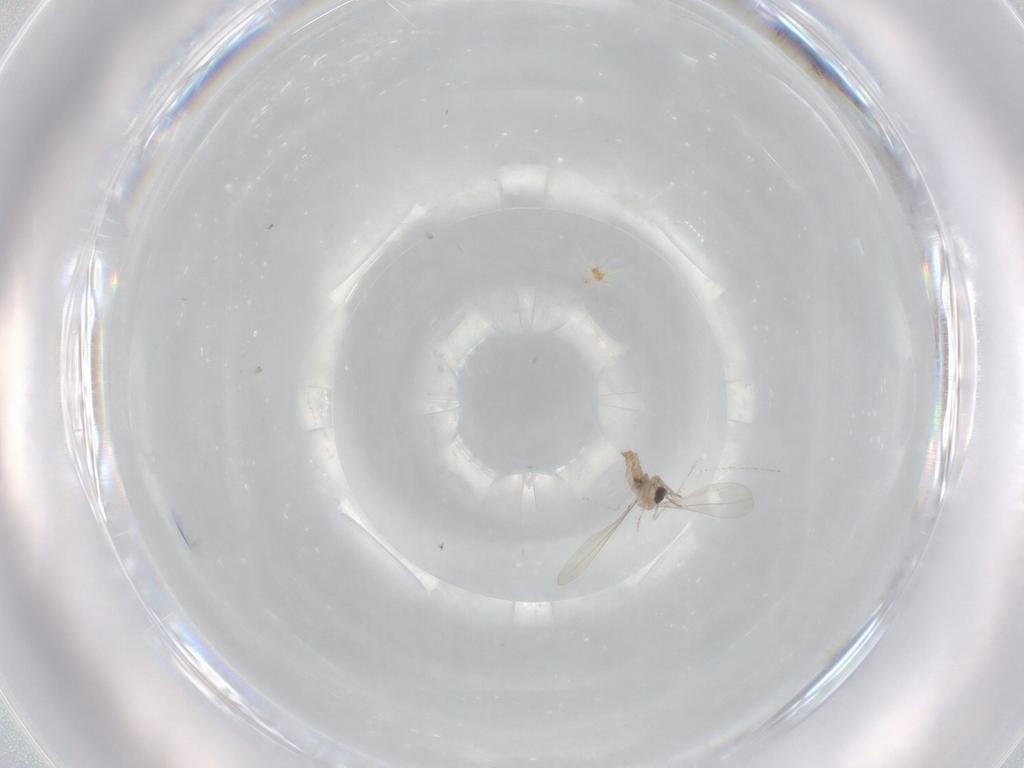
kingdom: Animalia
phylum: Arthropoda
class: Insecta
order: Diptera
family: Cecidomyiidae
